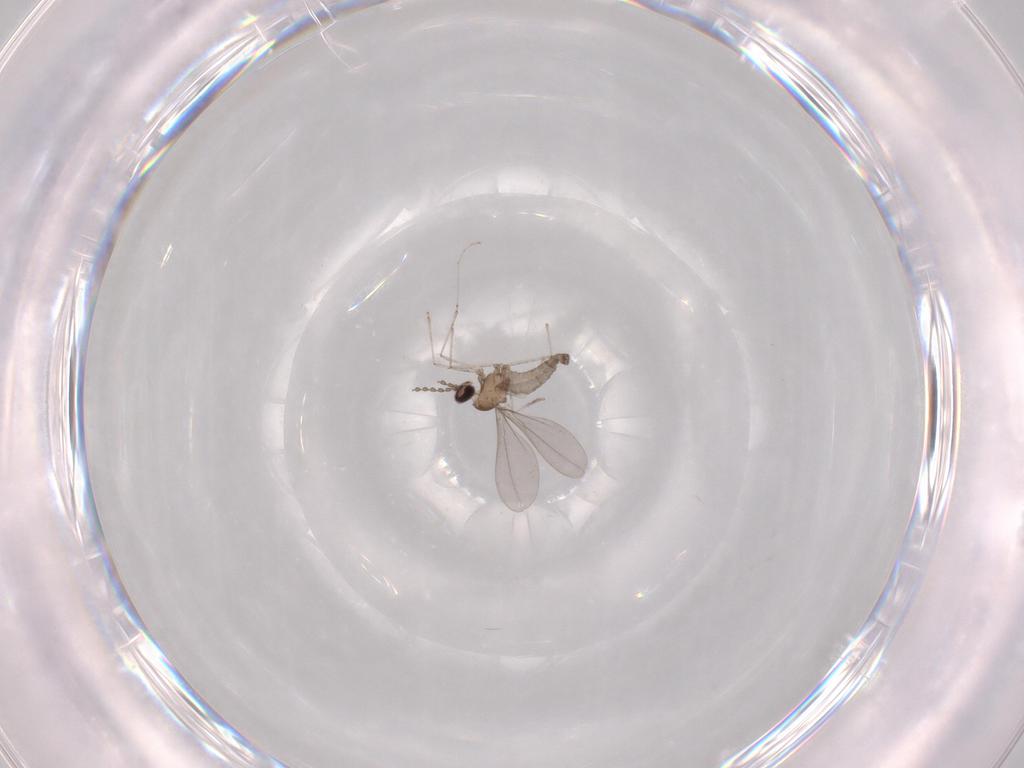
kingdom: Animalia
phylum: Arthropoda
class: Insecta
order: Diptera
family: Cecidomyiidae
